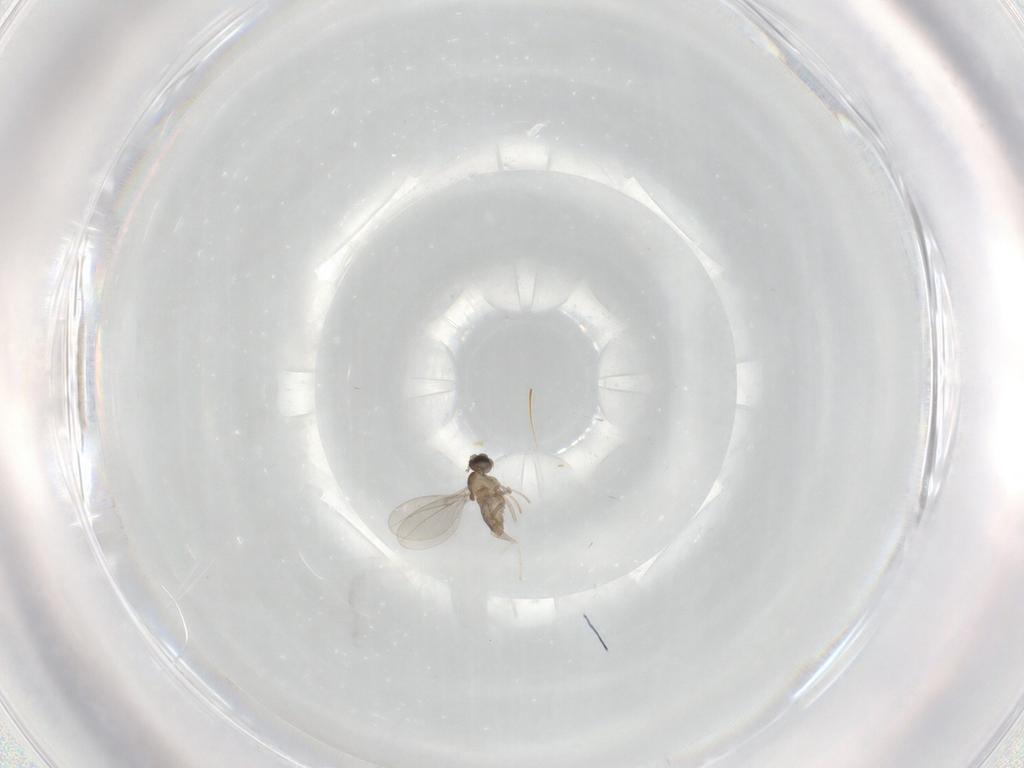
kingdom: Animalia
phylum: Arthropoda
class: Insecta
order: Diptera
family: Cecidomyiidae
